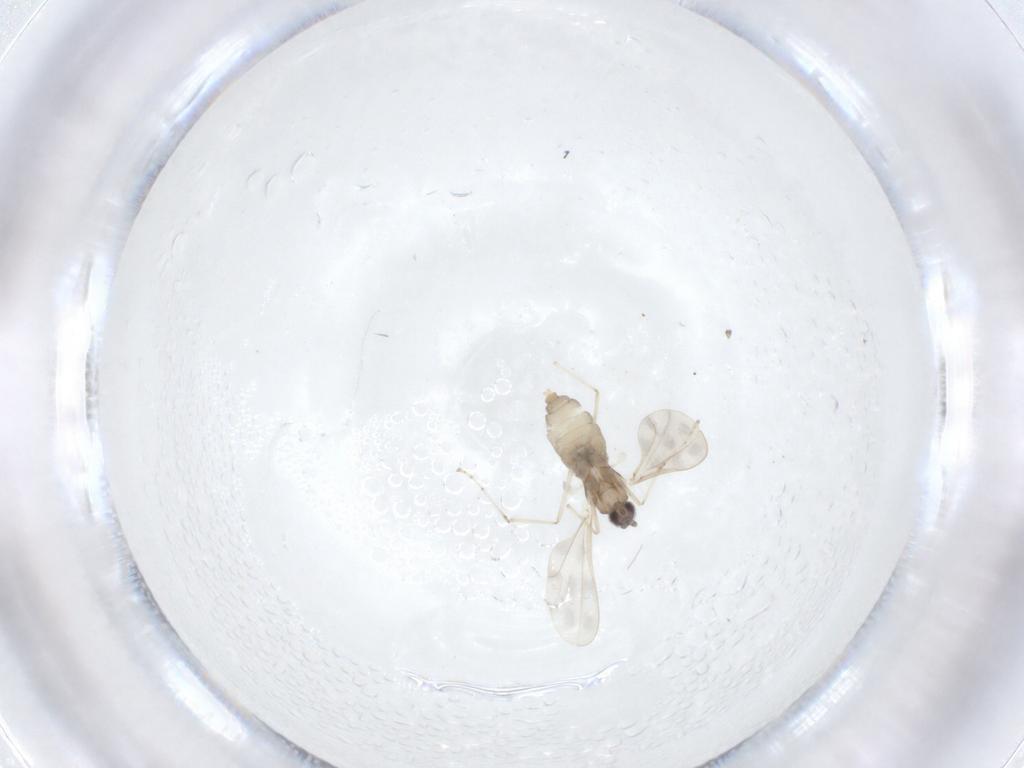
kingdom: Animalia
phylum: Arthropoda
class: Insecta
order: Diptera
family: Cecidomyiidae
